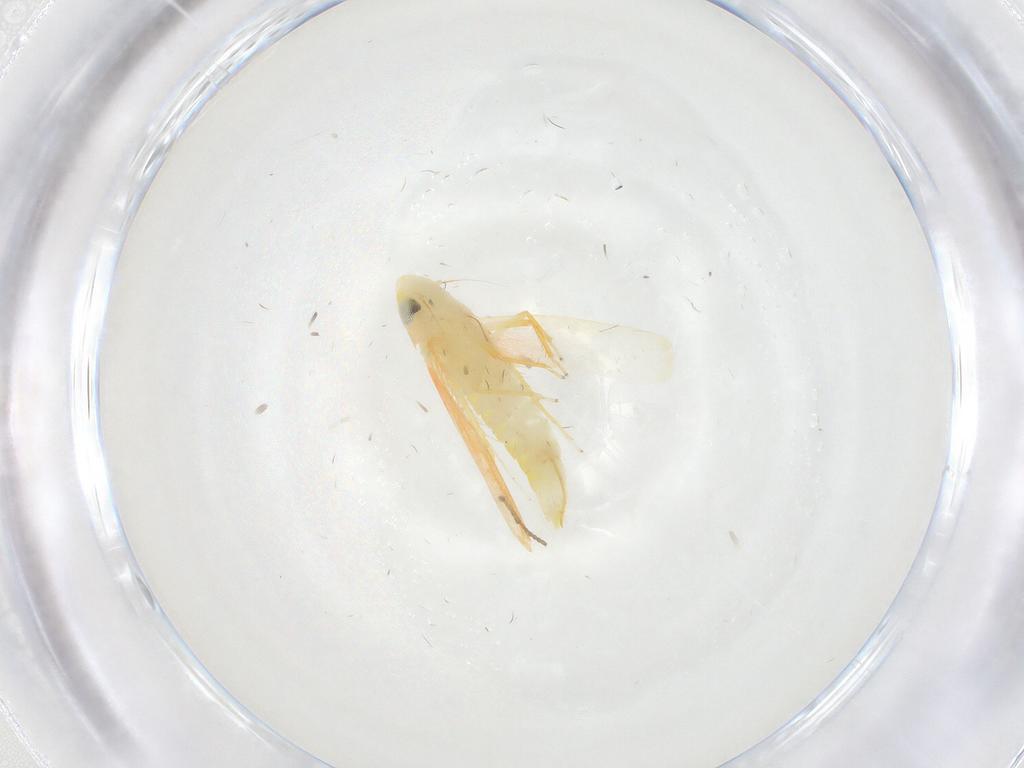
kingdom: Animalia
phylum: Arthropoda
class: Insecta
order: Hemiptera
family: Cicadellidae
